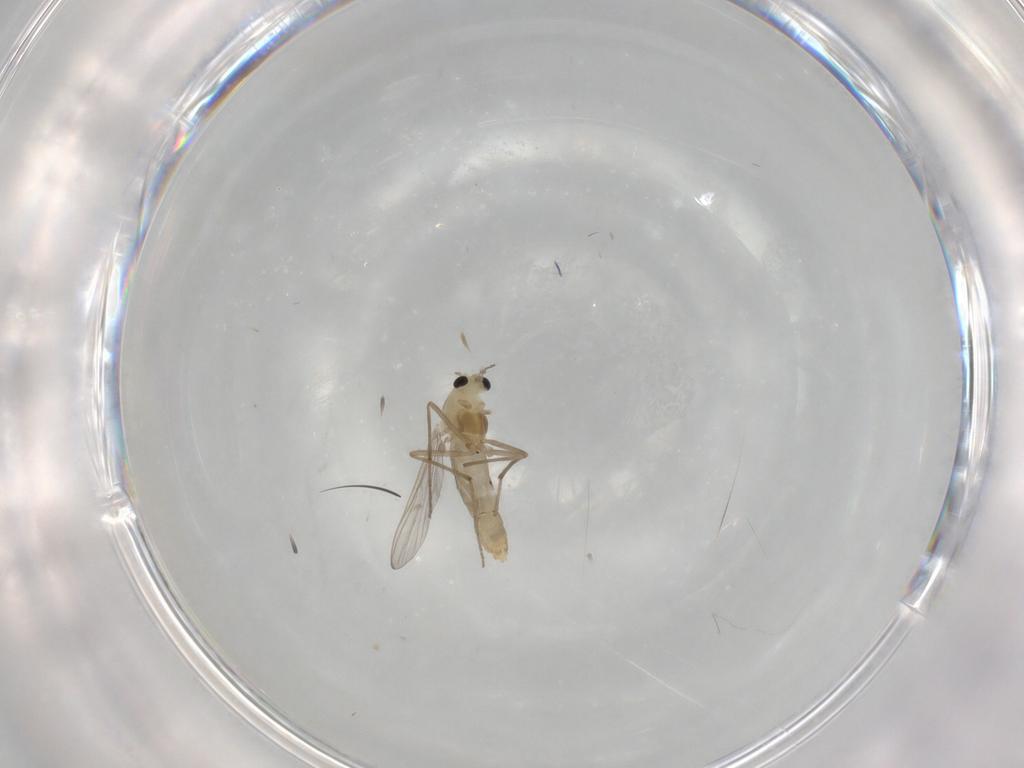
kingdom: Animalia
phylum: Arthropoda
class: Insecta
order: Diptera
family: Chironomidae
